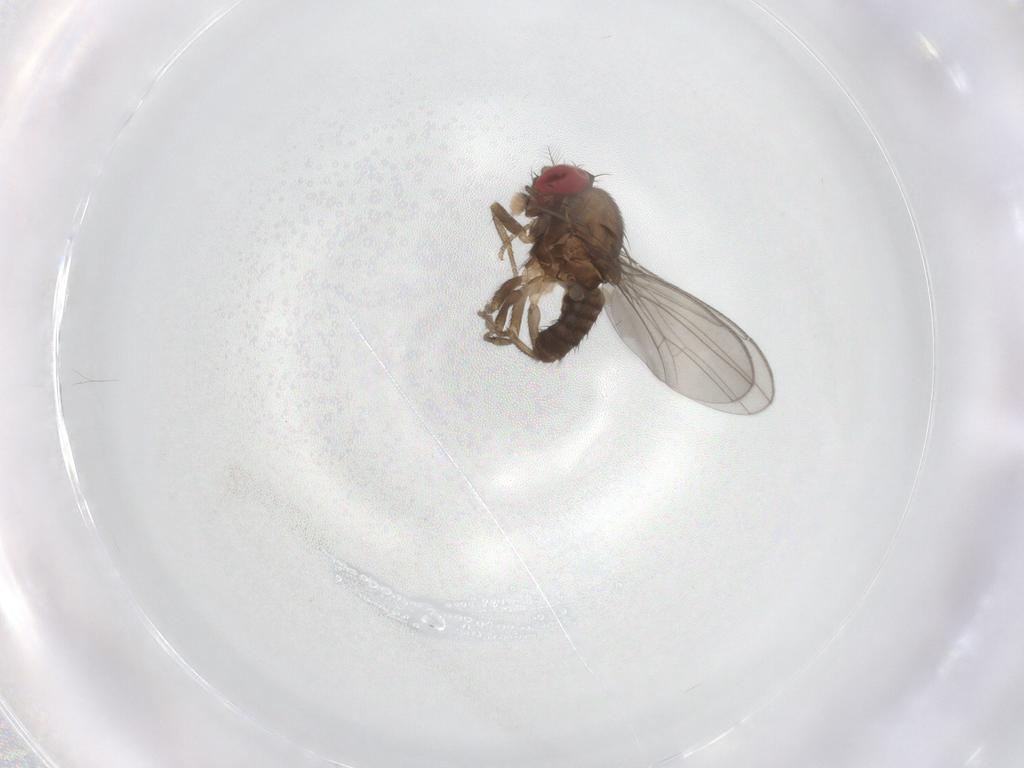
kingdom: Animalia
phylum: Arthropoda
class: Insecta
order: Diptera
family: Drosophilidae
